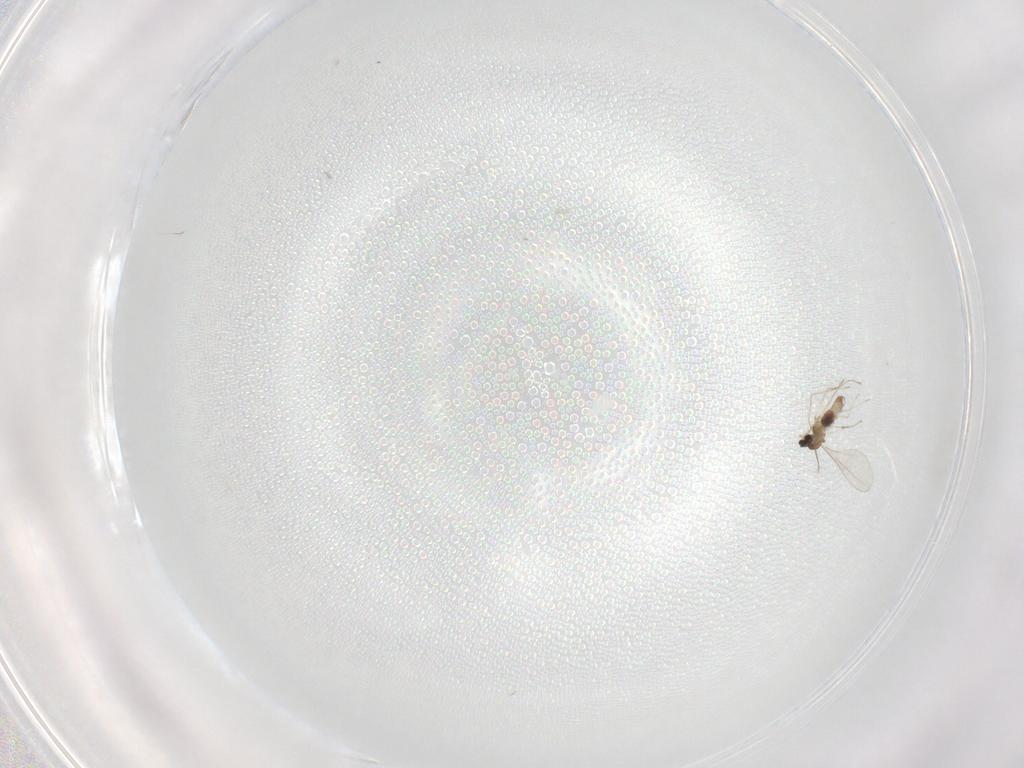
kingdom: Animalia
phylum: Arthropoda
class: Insecta
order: Diptera
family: Cecidomyiidae
